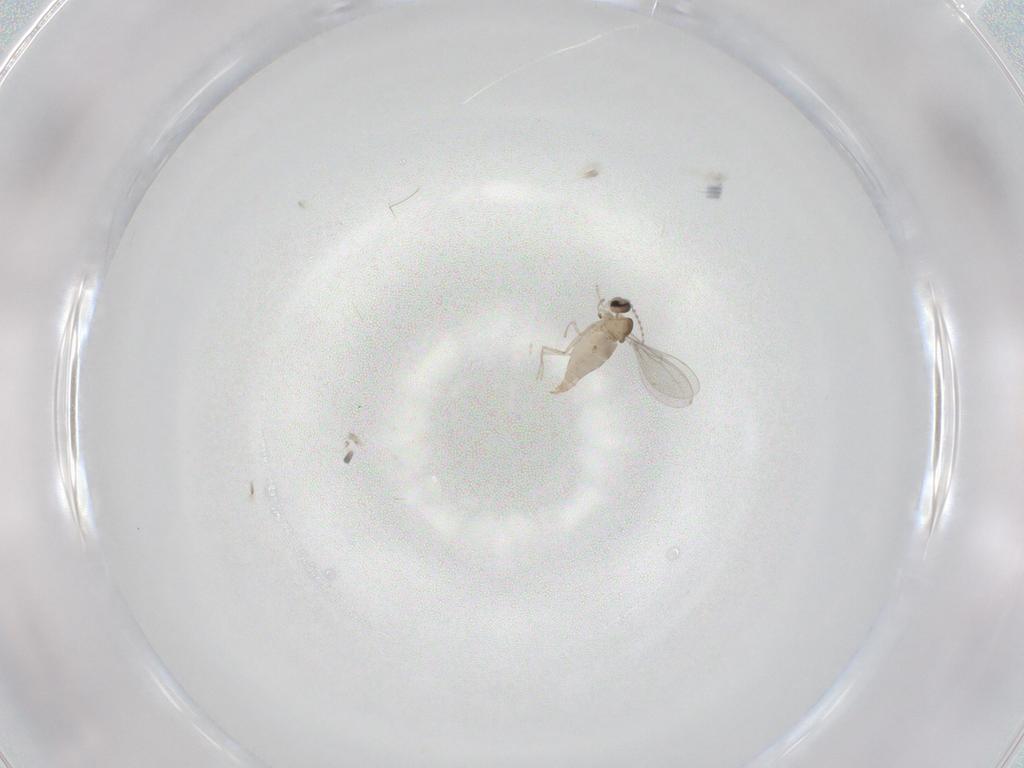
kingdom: Animalia
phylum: Arthropoda
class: Insecta
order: Diptera
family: Cecidomyiidae
